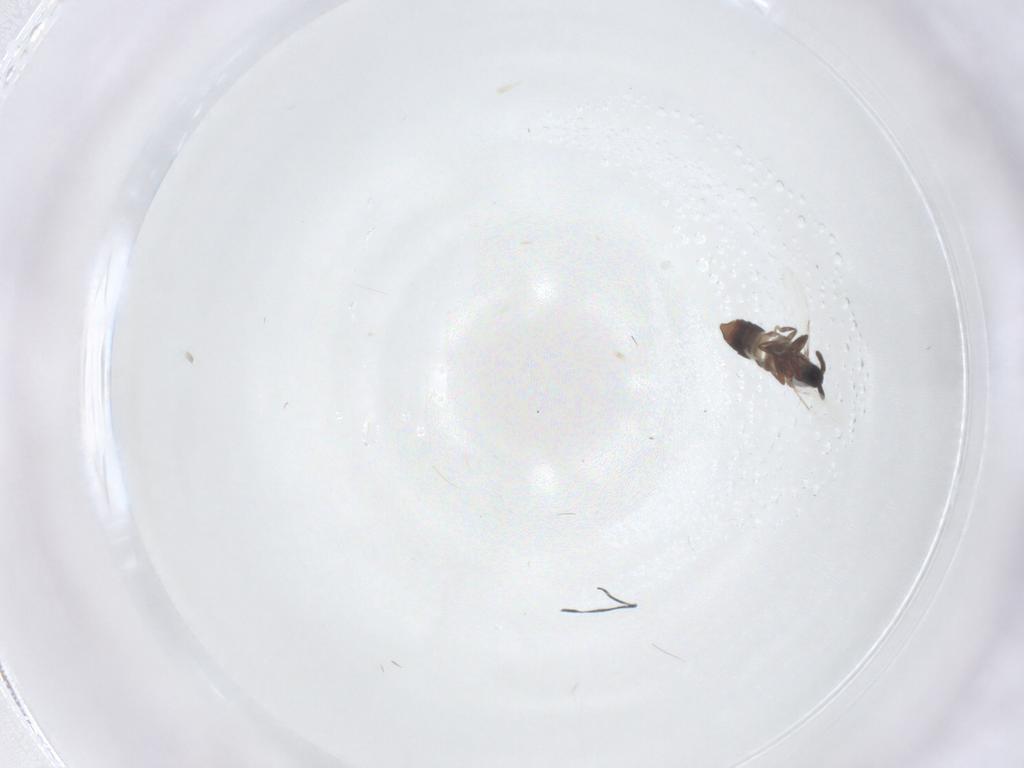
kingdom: Animalia
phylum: Arthropoda
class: Insecta
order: Diptera
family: Scatopsidae
